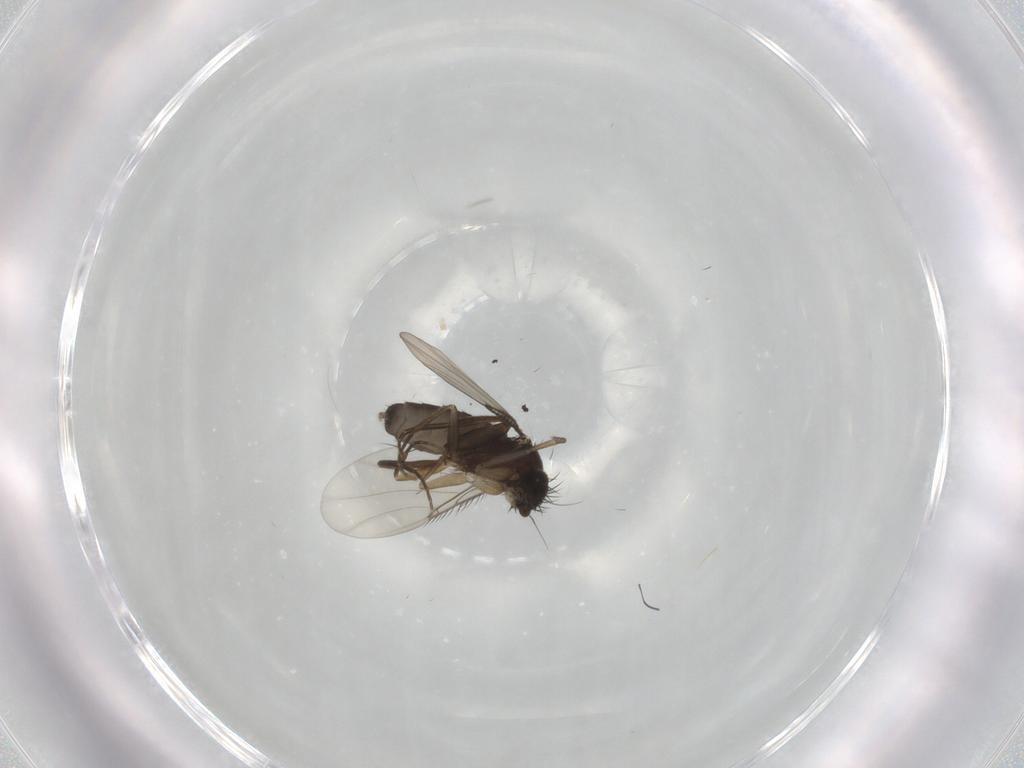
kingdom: Animalia
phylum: Arthropoda
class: Insecta
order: Diptera
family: Phoridae
